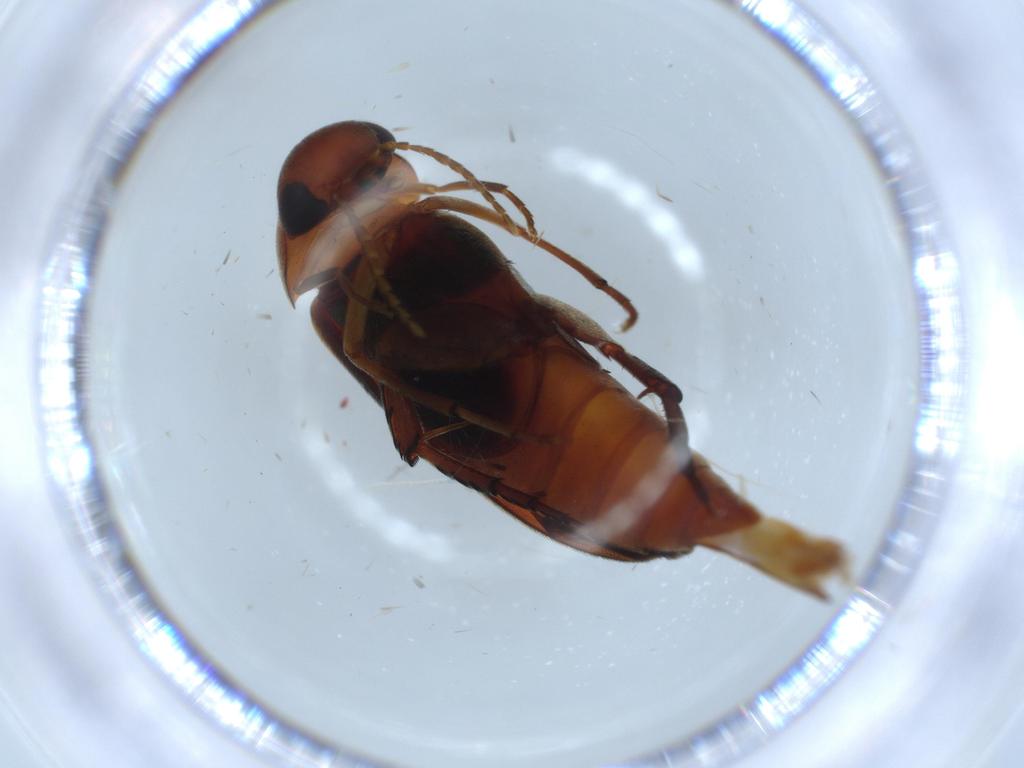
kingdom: Animalia
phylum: Arthropoda
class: Insecta
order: Coleoptera
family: Mordellidae
